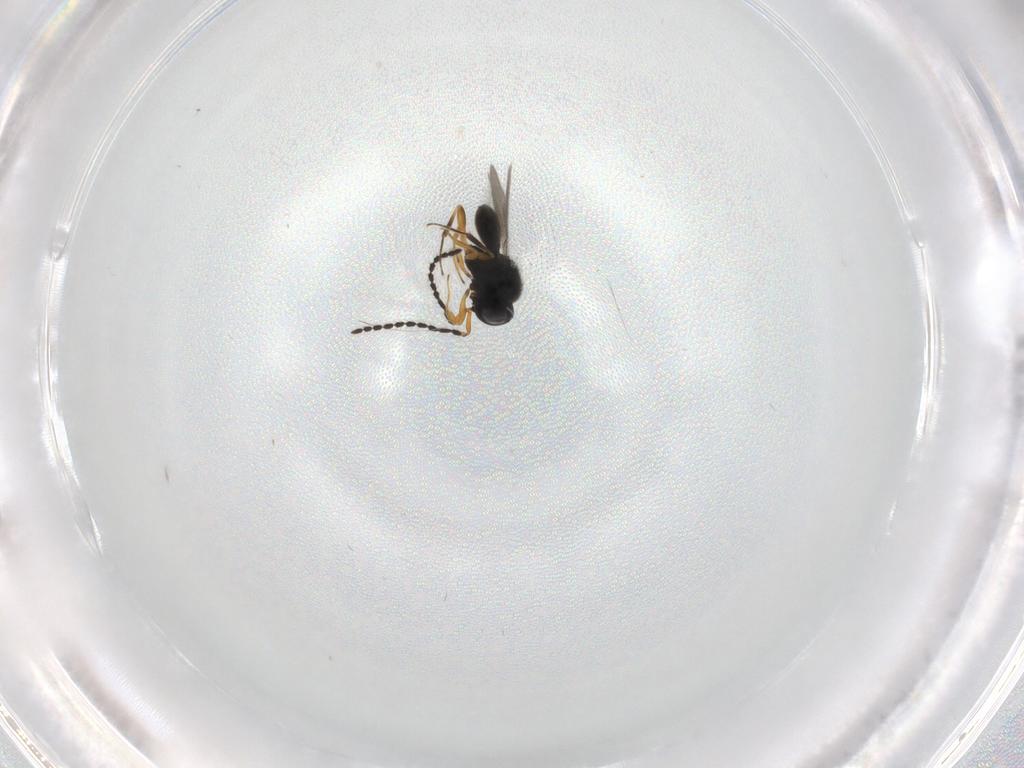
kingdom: Animalia
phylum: Arthropoda
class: Insecta
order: Hymenoptera
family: Scelionidae
